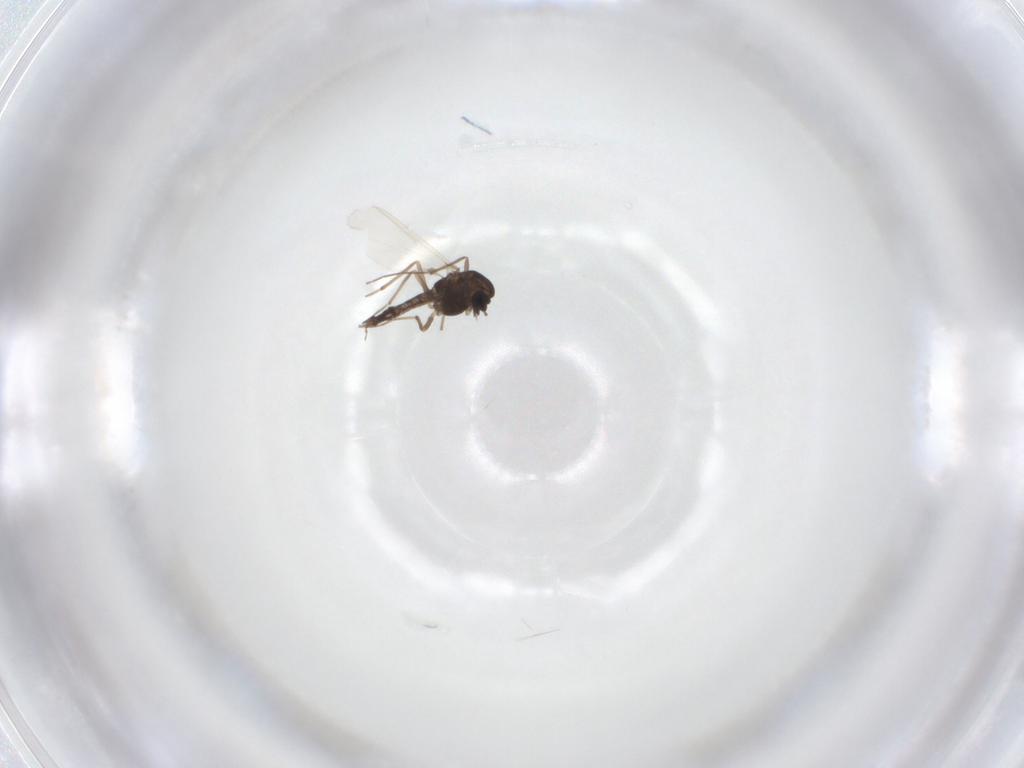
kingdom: Animalia
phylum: Arthropoda
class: Insecta
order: Diptera
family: Chironomidae
